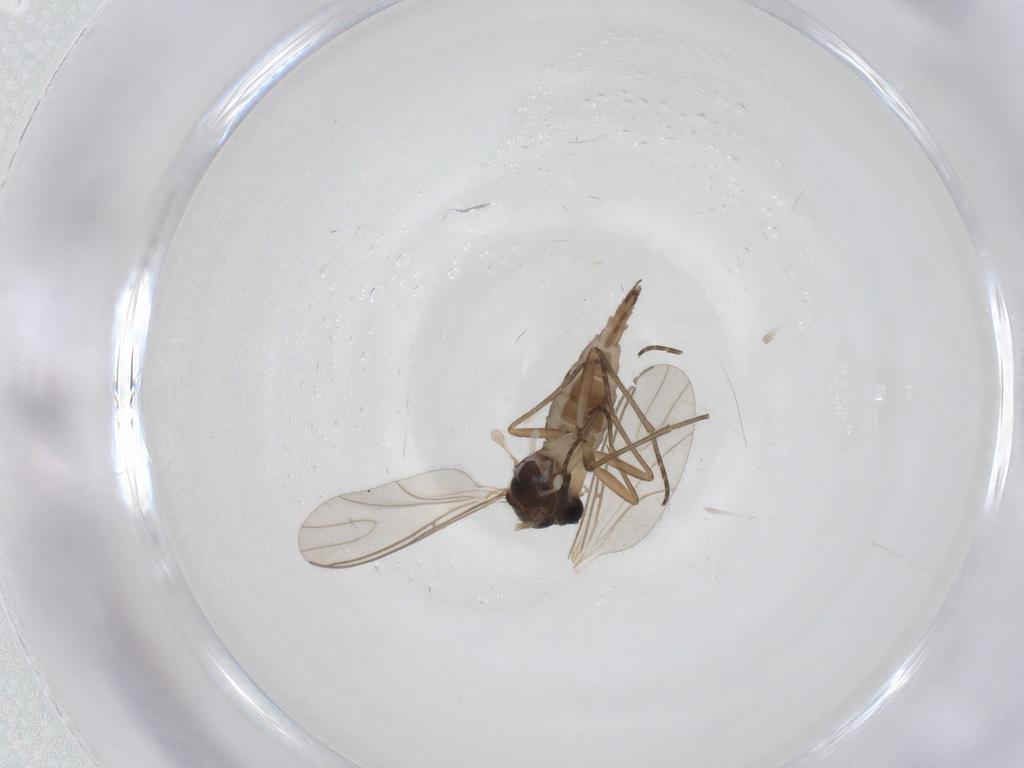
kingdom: Animalia
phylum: Arthropoda
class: Insecta
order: Diptera
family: Sciaridae
